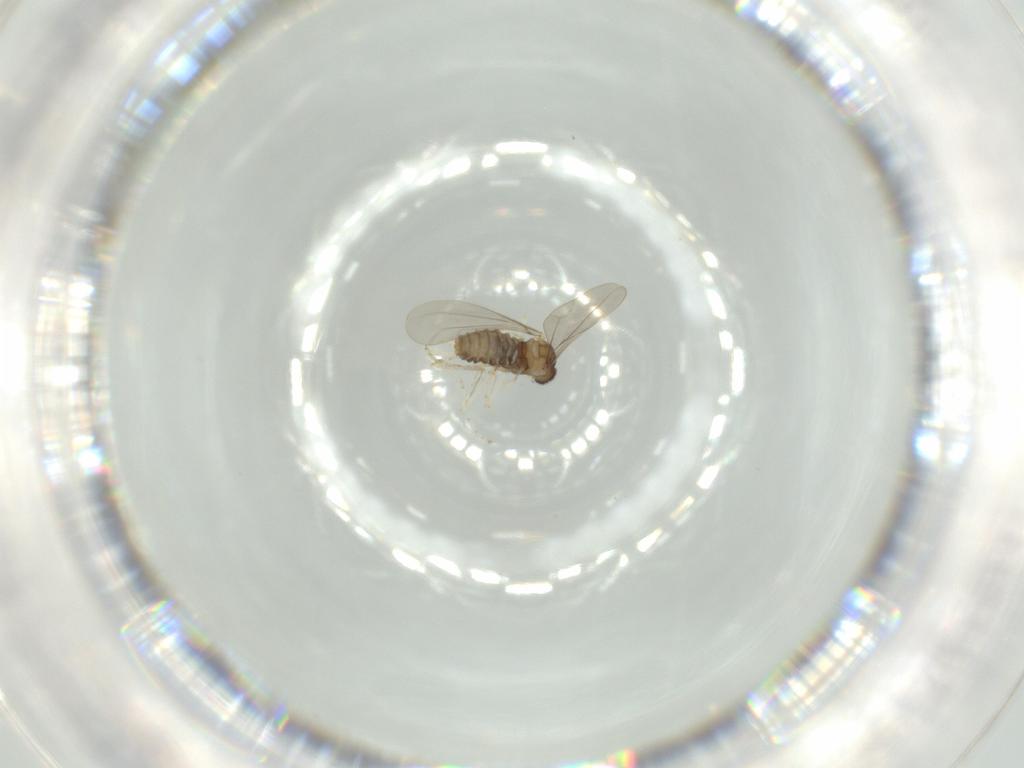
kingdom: Animalia
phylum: Arthropoda
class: Insecta
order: Diptera
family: Cecidomyiidae
